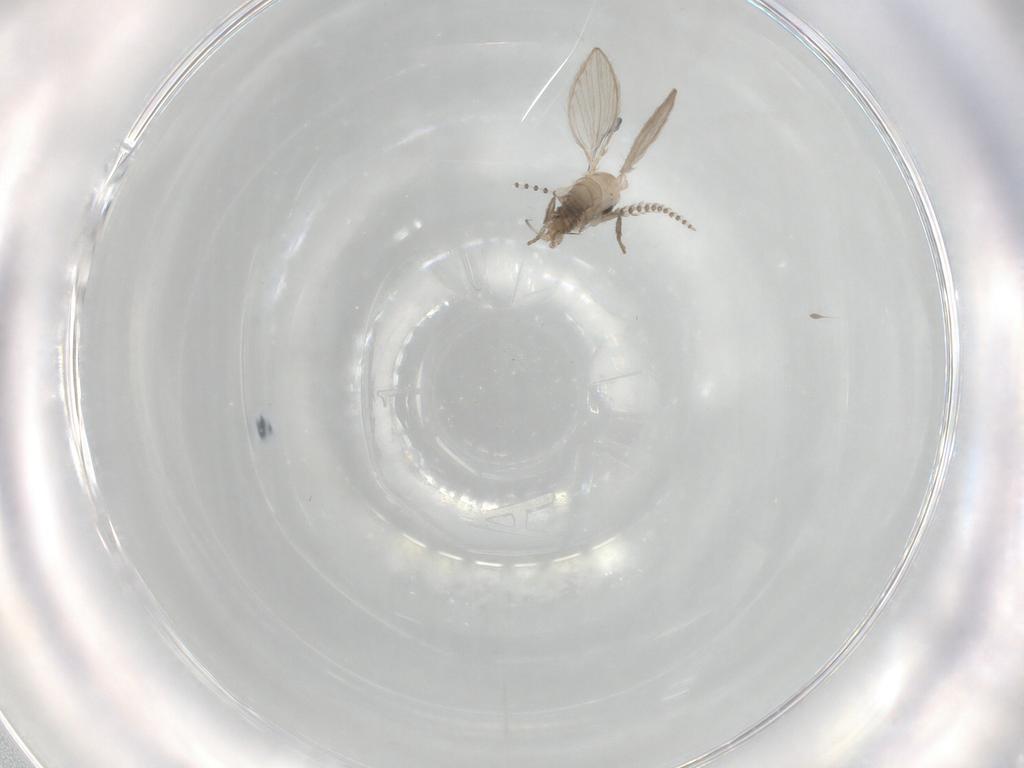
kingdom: Animalia
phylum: Arthropoda
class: Insecta
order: Diptera
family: Psychodidae
